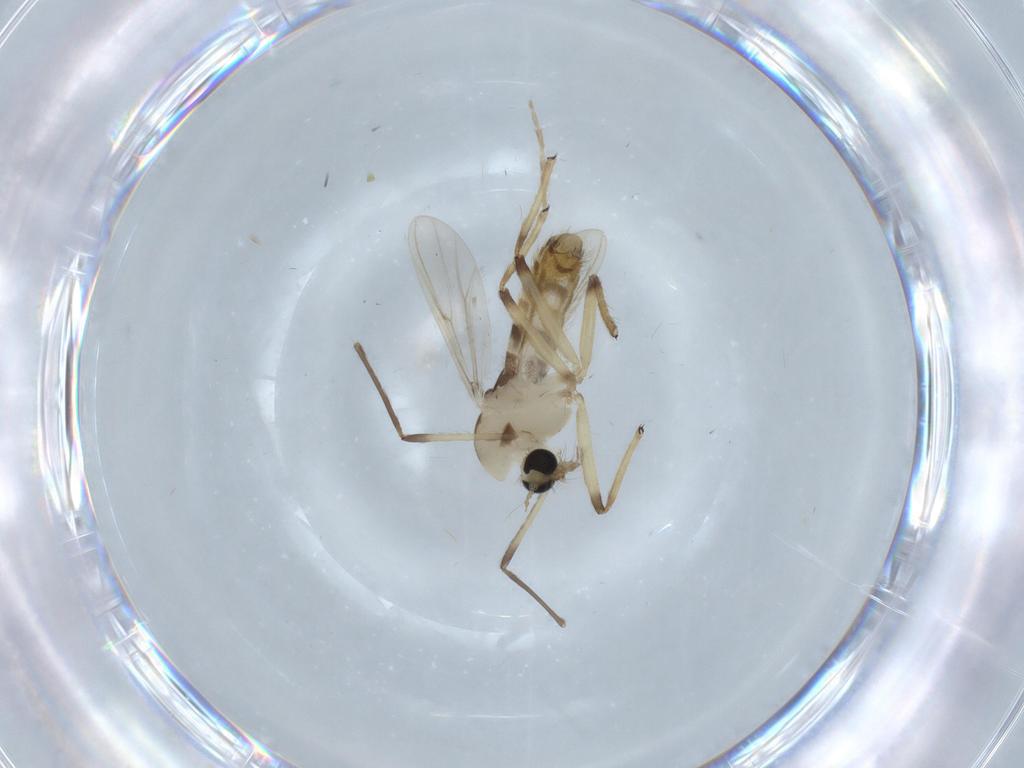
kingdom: Animalia
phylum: Arthropoda
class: Insecta
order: Diptera
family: Chironomidae
